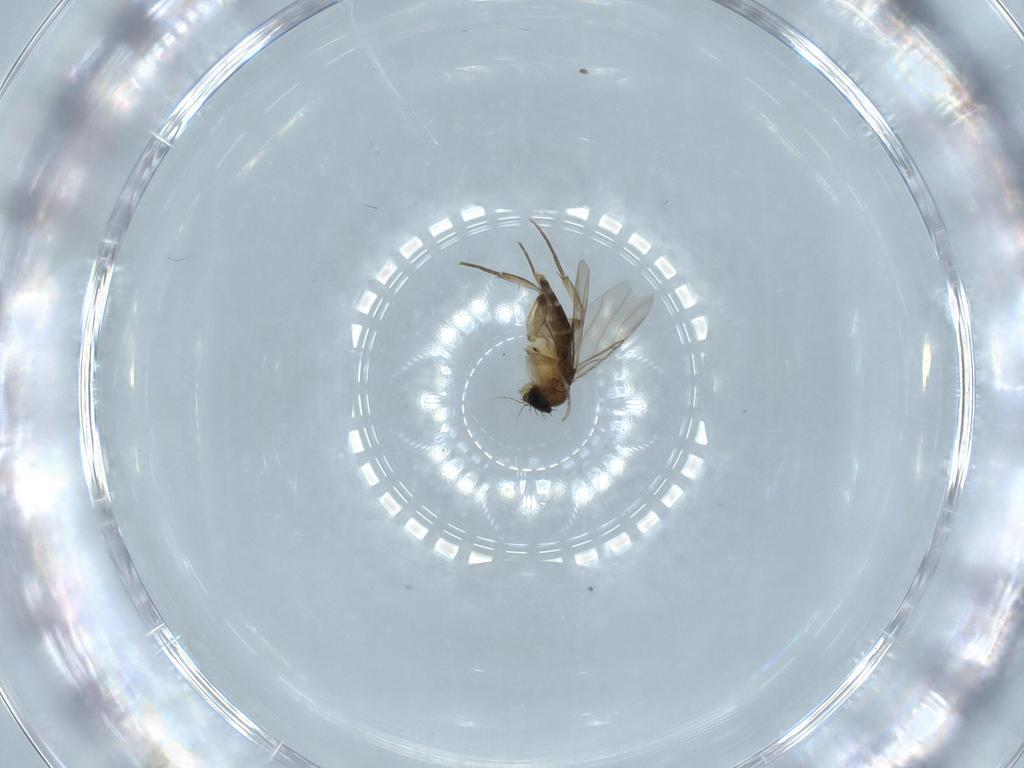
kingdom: Animalia
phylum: Arthropoda
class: Insecta
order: Diptera
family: Phoridae
